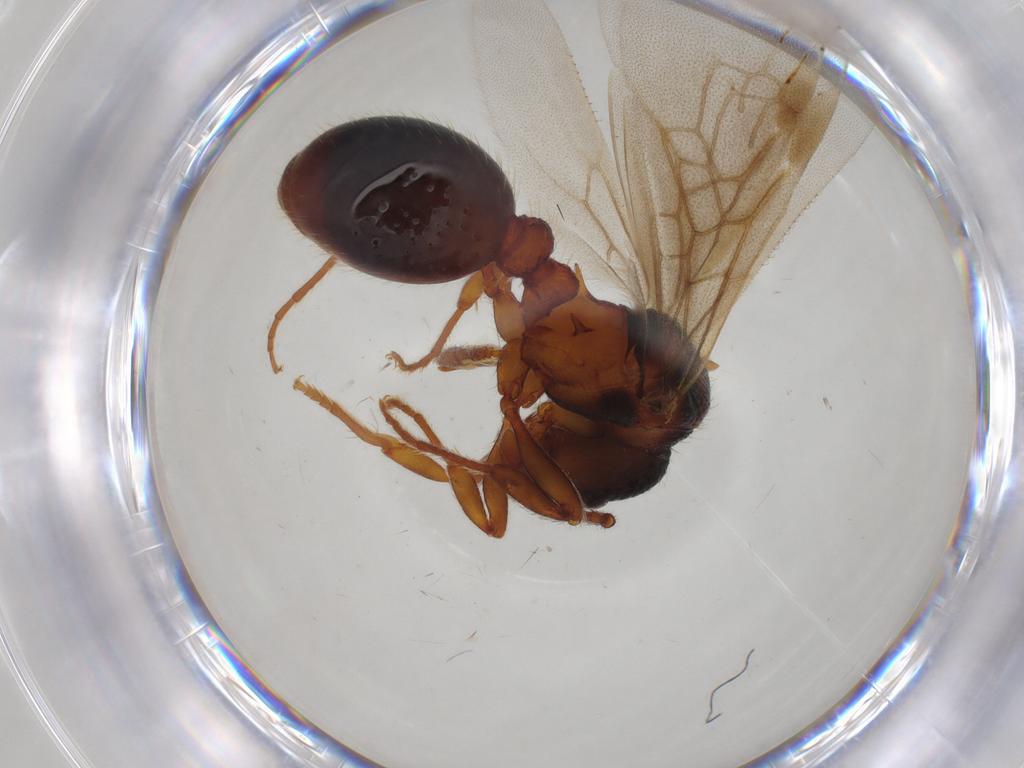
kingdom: Animalia
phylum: Arthropoda
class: Insecta
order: Hymenoptera
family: Formicidae
